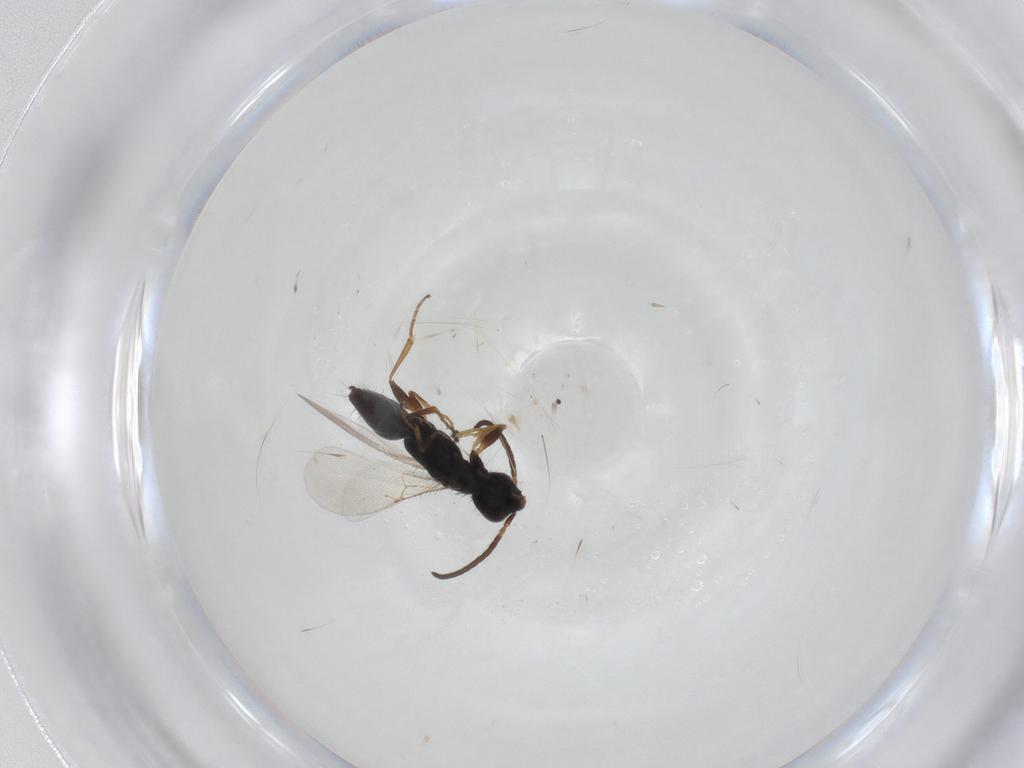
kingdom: Animalia
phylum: Arthropoda
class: Insecta
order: Hymenoptera
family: Bethylidae
